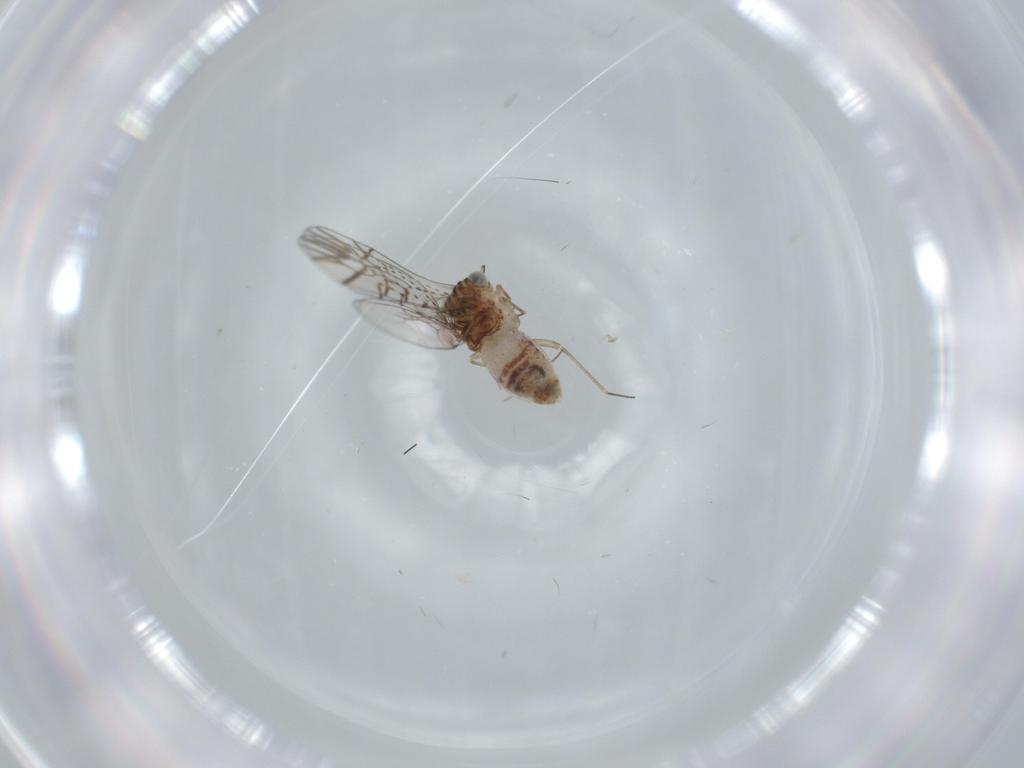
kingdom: Animalia
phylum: Arthropoda
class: Insecta
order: Psocodea
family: Caeciliusidae
